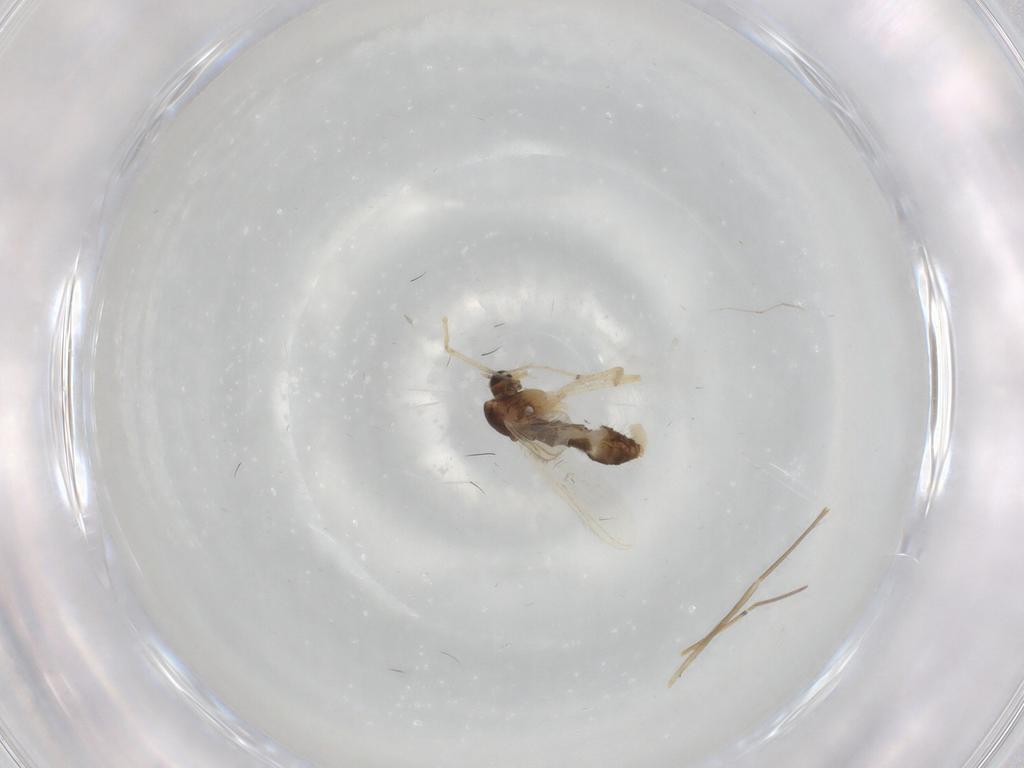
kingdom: Animalia
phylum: Arthropoda
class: Insecta
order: Diptera
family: Chironomidae
